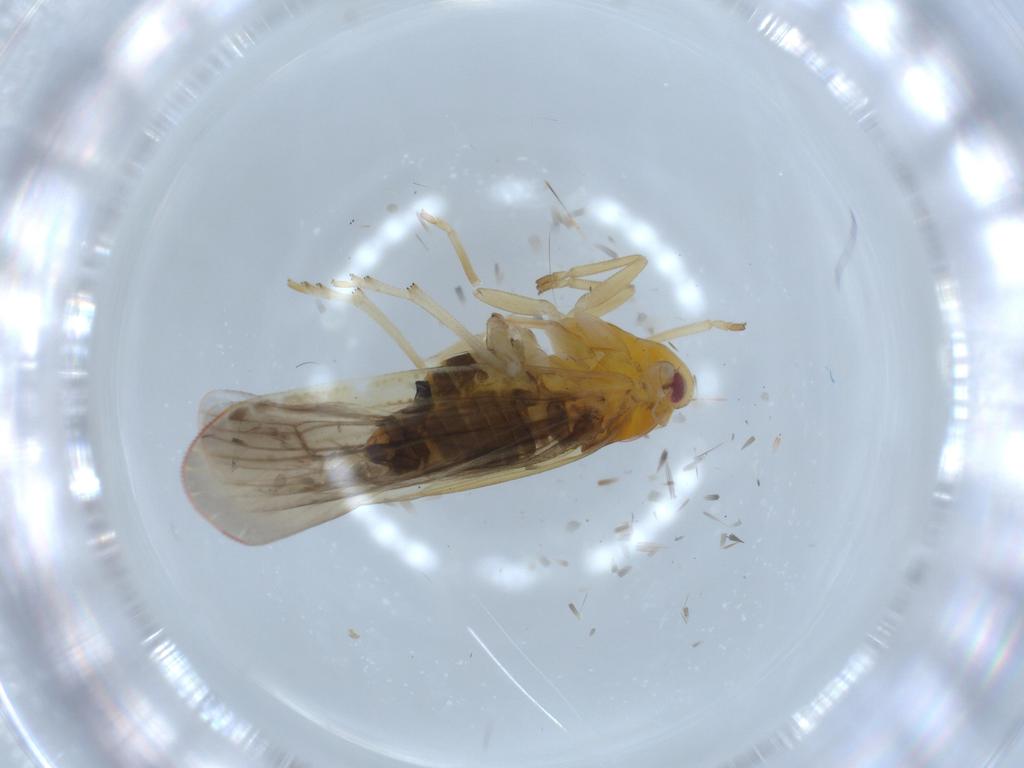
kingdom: Animalia
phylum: Arthropoda
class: Insecta
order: Hemiptera
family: Derbidae
